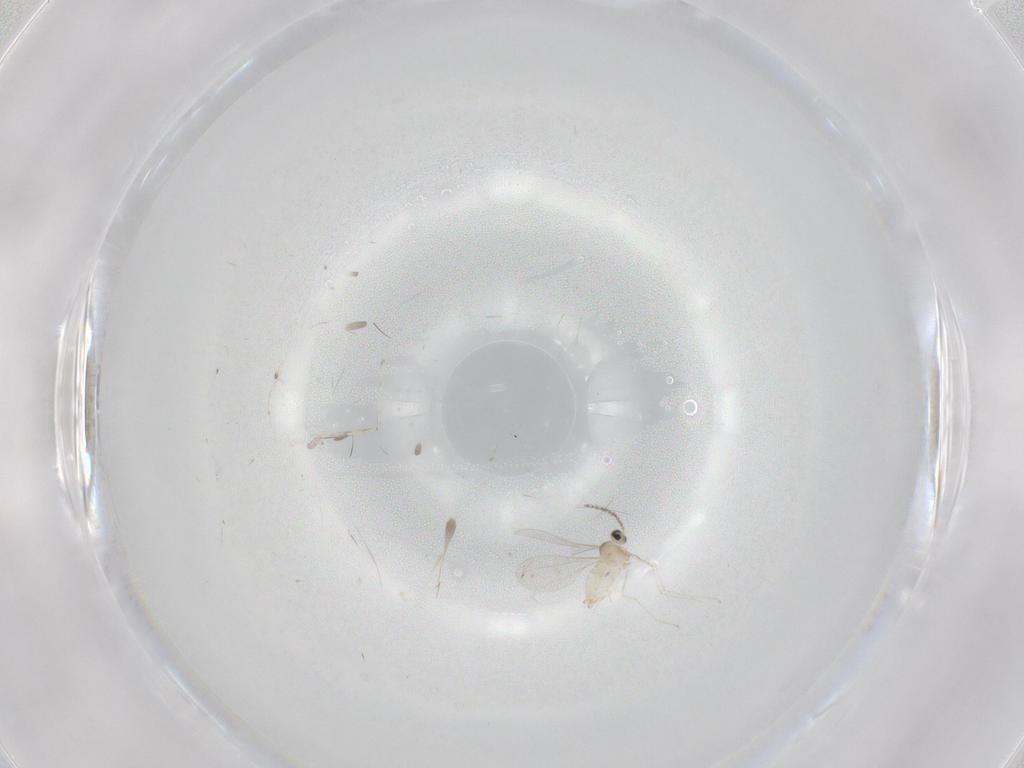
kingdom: Animalia
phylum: Arthropoda
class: Insecta
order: Diptera
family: Cecidomyiidae
